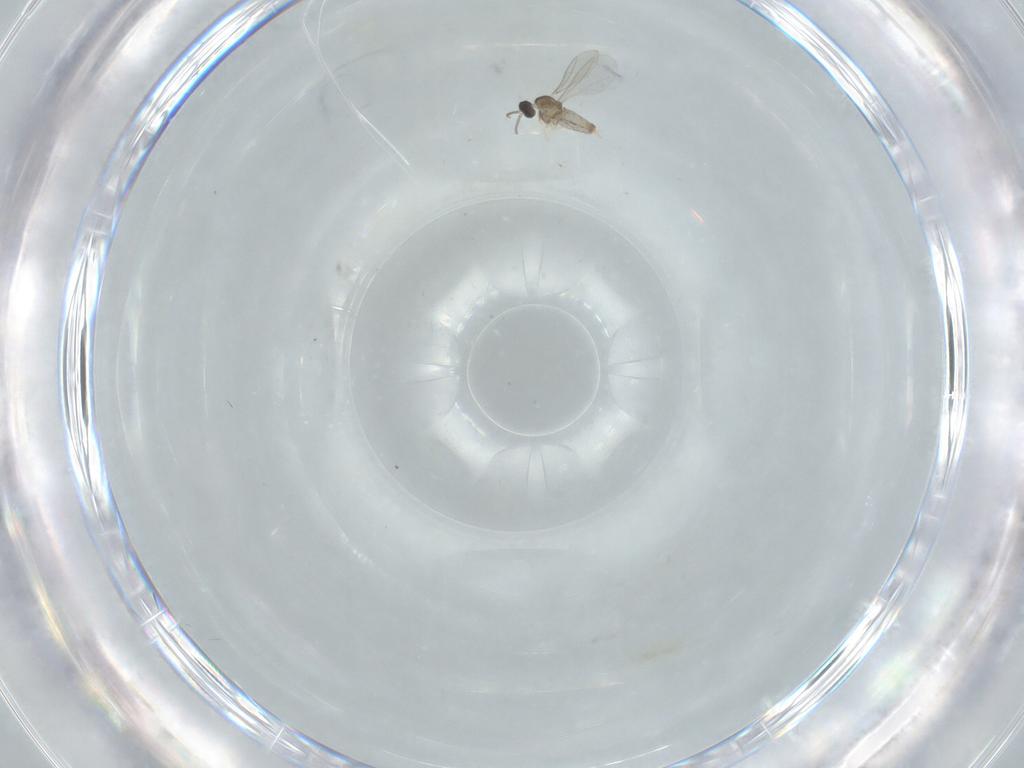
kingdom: Animalia
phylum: Arthropoda
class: Insecta
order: Diptera
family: Cecidomyiidae
